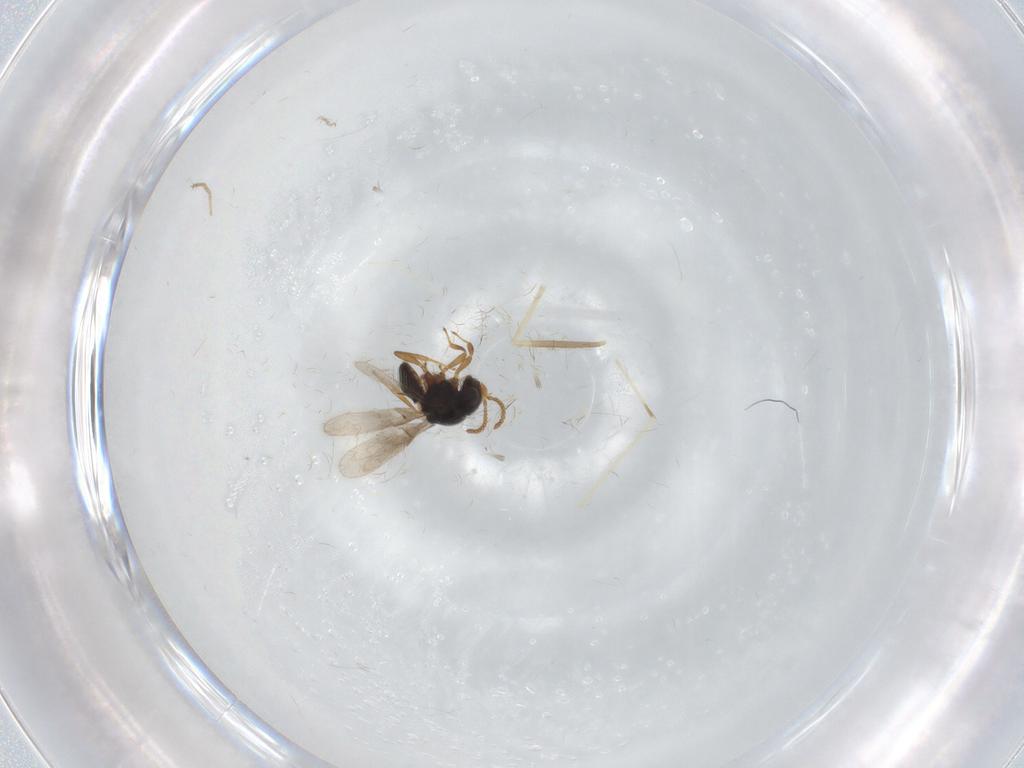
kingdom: Animalia
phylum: Arthropoda
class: Insecta
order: Hymenoptera
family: Scelionidae
